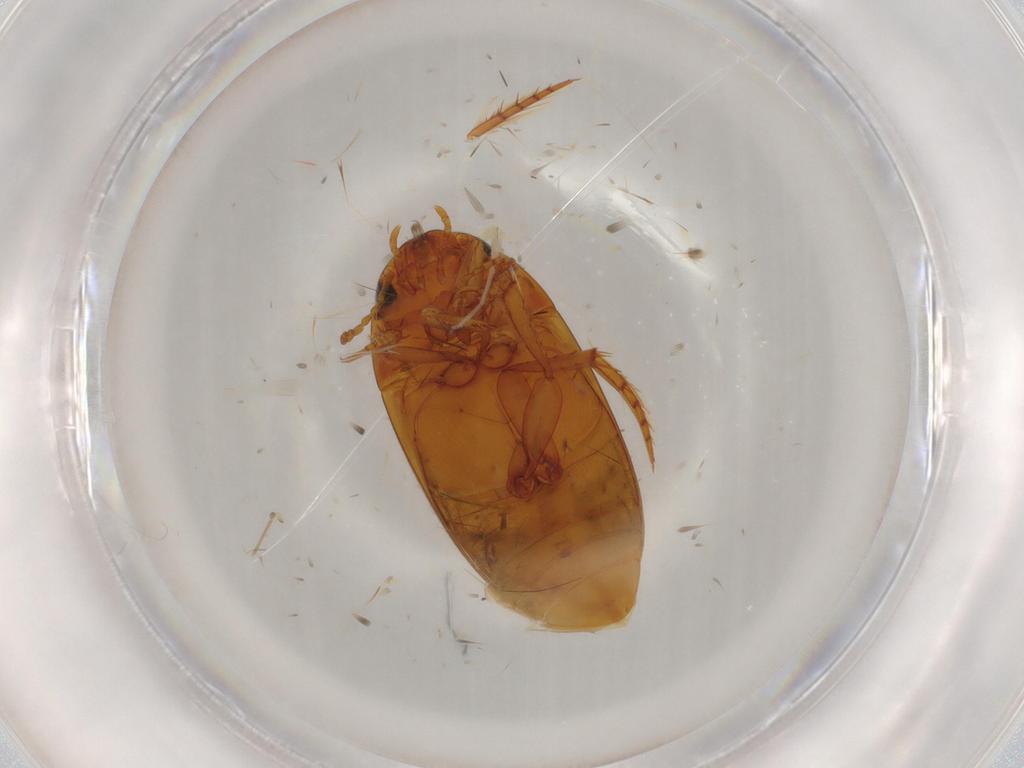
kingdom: Animalia
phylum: Arthropoda
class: Insecta
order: Coleoptera
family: Dytiscidae
